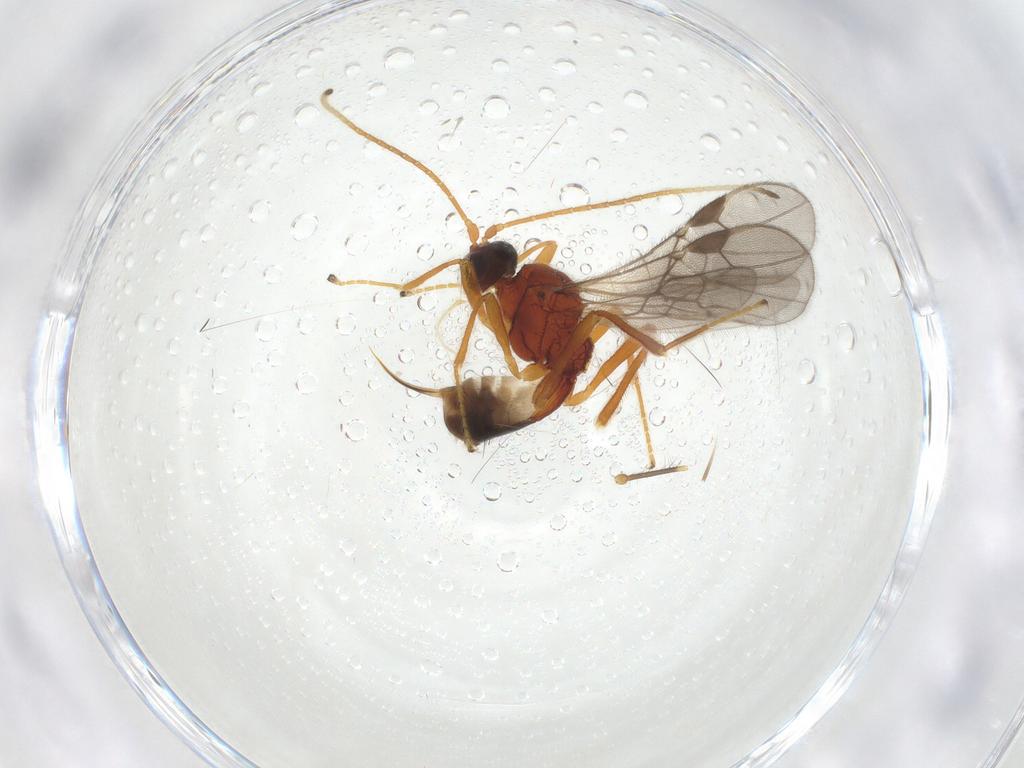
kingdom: Animalia
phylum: Arthropoda
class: Insecta
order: Hymenoptera
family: Braconidae
